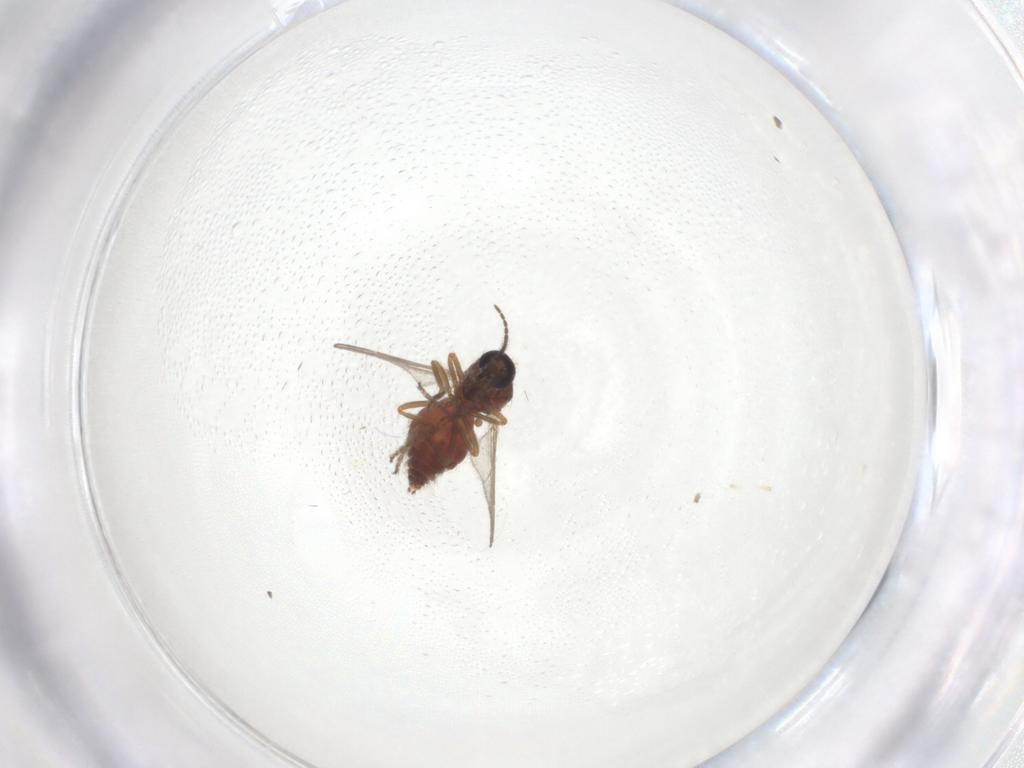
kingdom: Animalia
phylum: Arthropoda
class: Insecta
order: Diptera
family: Ceratopogonidae
